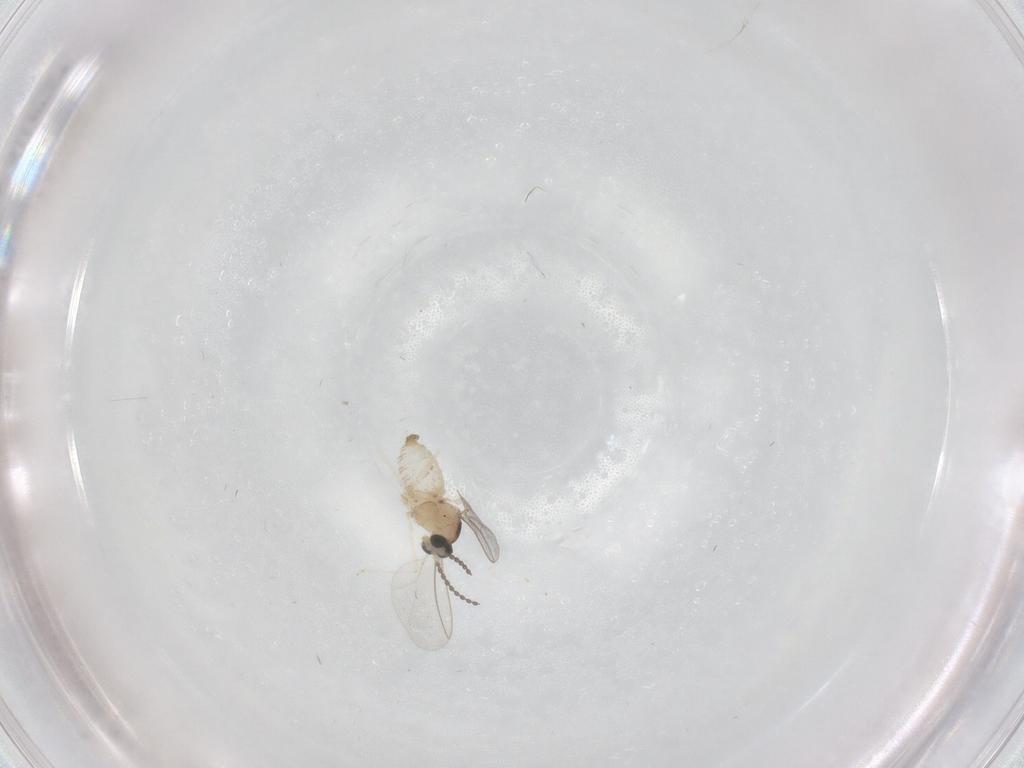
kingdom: Animalia
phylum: Arthropoda
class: Insecta
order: Diptera
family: Cecidomyiidae
